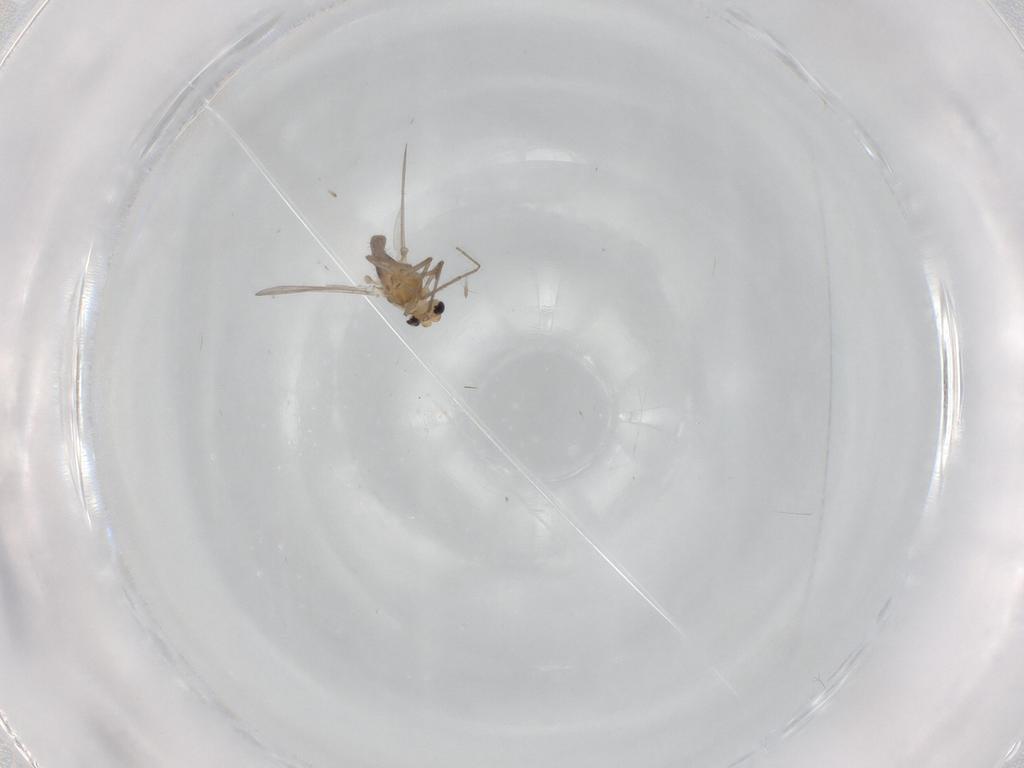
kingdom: Animalia
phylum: Arthropoda
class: Insecta
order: Diptera
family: Chironomidae
